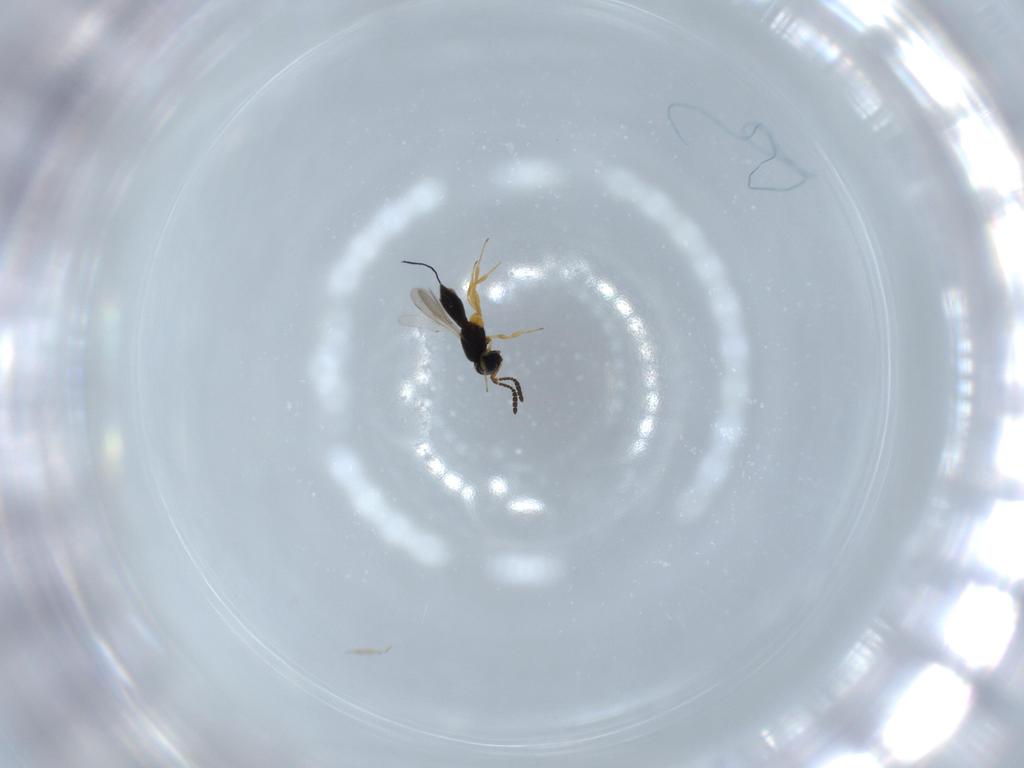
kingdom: Animalia
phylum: Arthropoda
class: Insecta
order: Hymenoptera
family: Scelionidae
